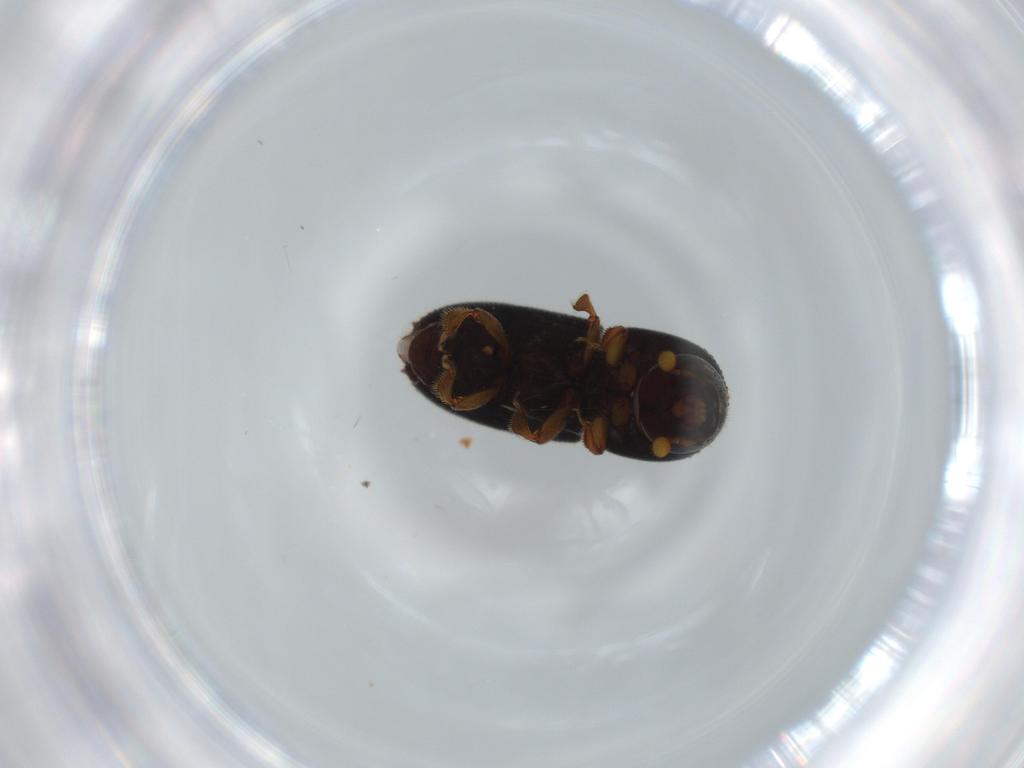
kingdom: Animalia
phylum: Arthropoda
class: Insecta
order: Coleoptera
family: Curculionidae
